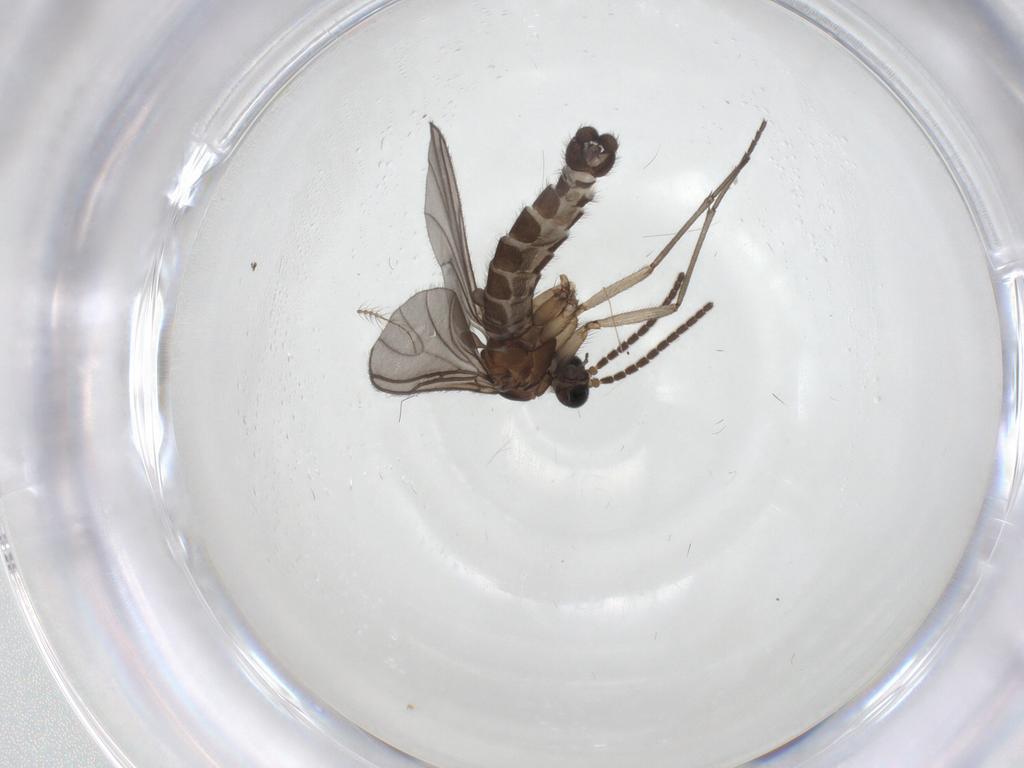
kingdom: Animalia
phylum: Arthropoda
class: Insecta
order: Diptera
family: Sciaridae
